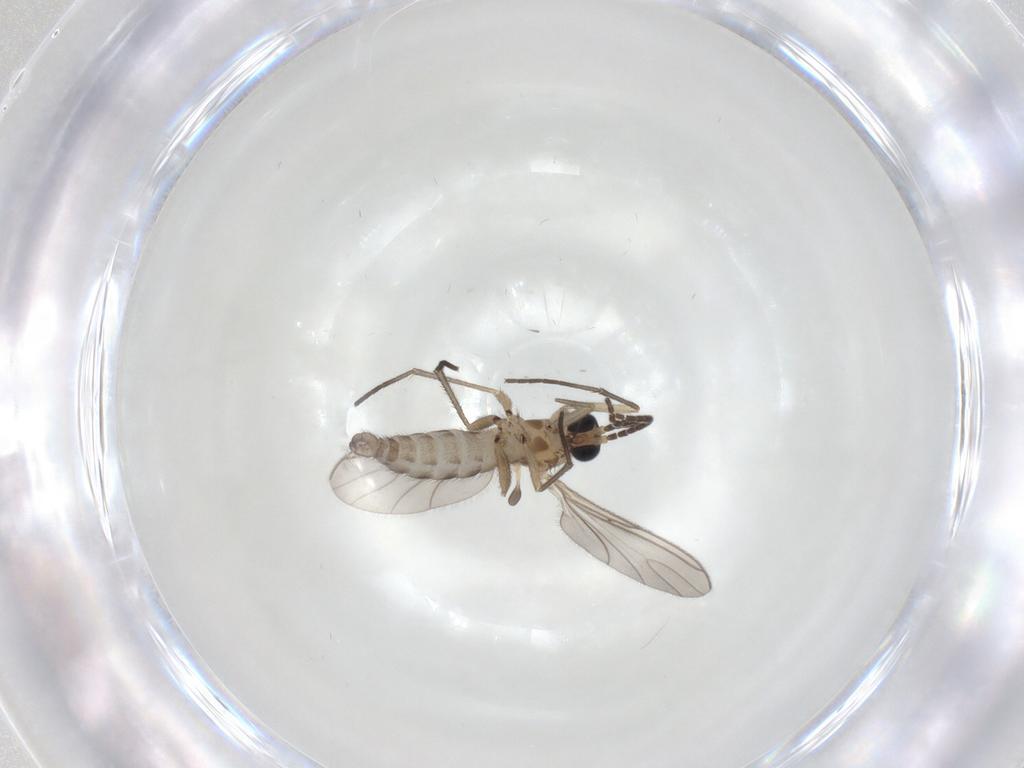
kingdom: Animalia
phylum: Arthropoda
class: Insecta
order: Diptera
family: Sciaridae
